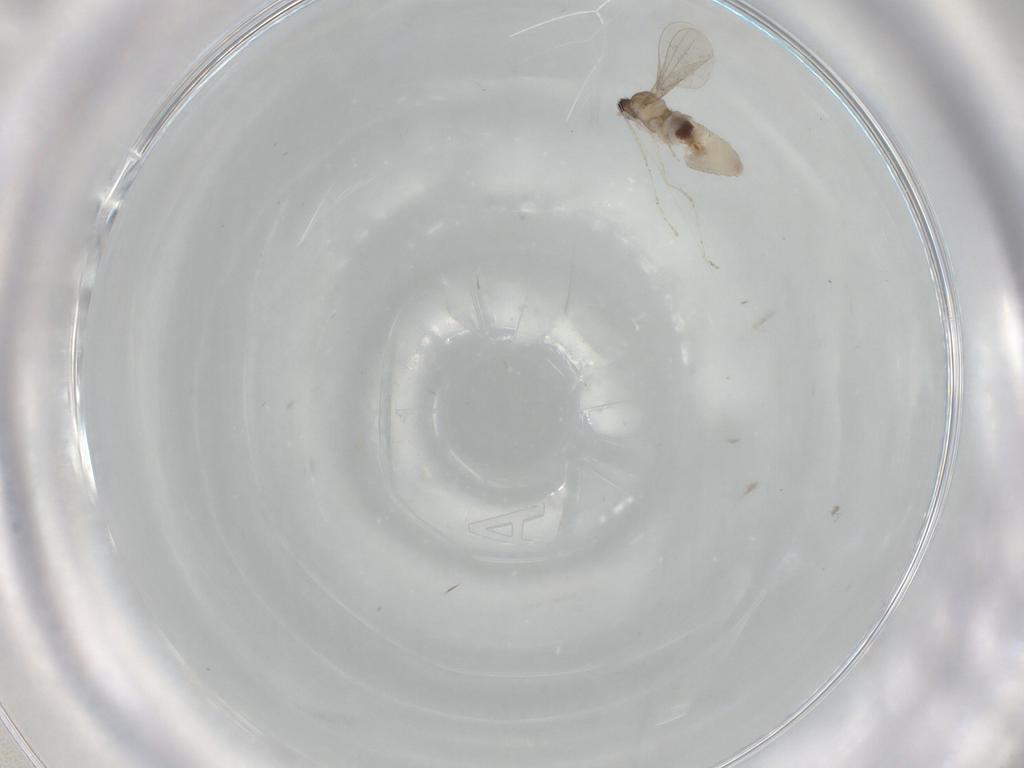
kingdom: Animalia
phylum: Arthropoda
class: Insecta
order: Diptera
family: Cecidomyiidae
